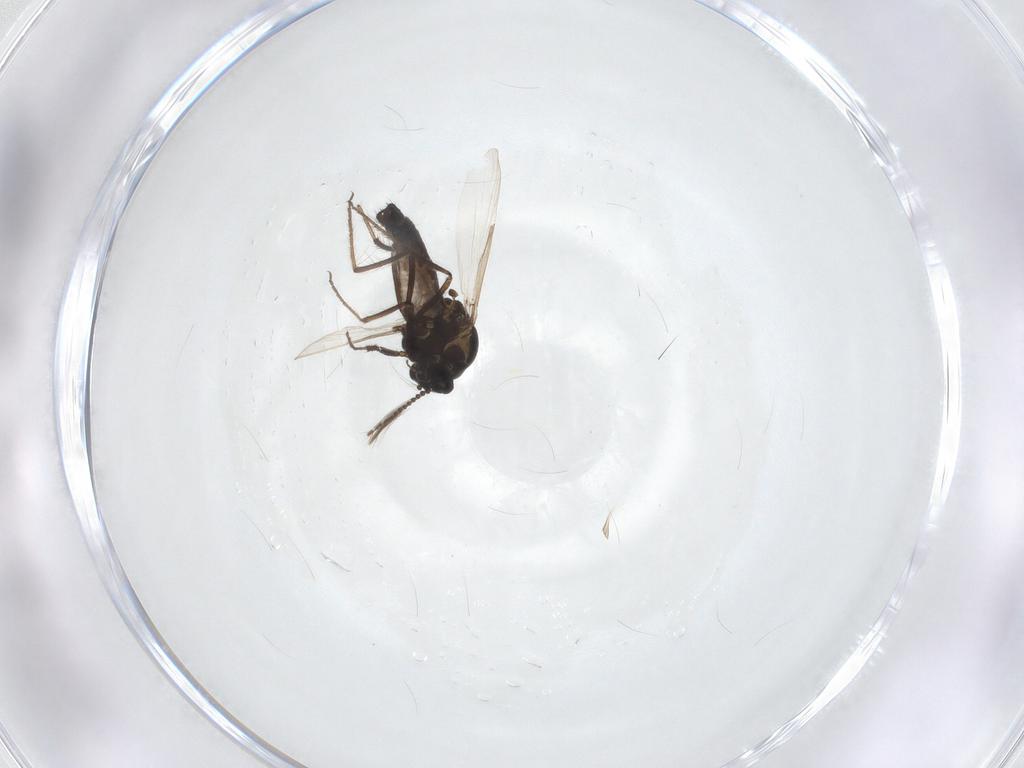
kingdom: Animalia
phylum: Arthropoda
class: Insecta
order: Diptera
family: Ceratopogonidae
